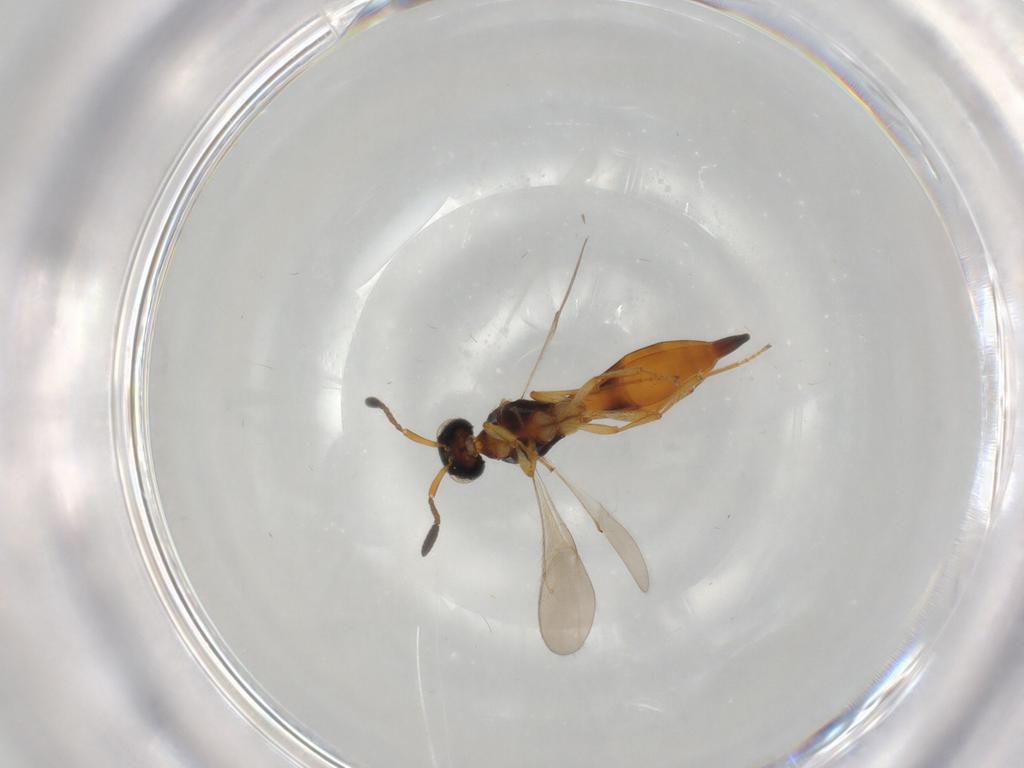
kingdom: Animalia
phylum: Arthropoda
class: Insecta
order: Hymenoptera
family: Scelionidae
